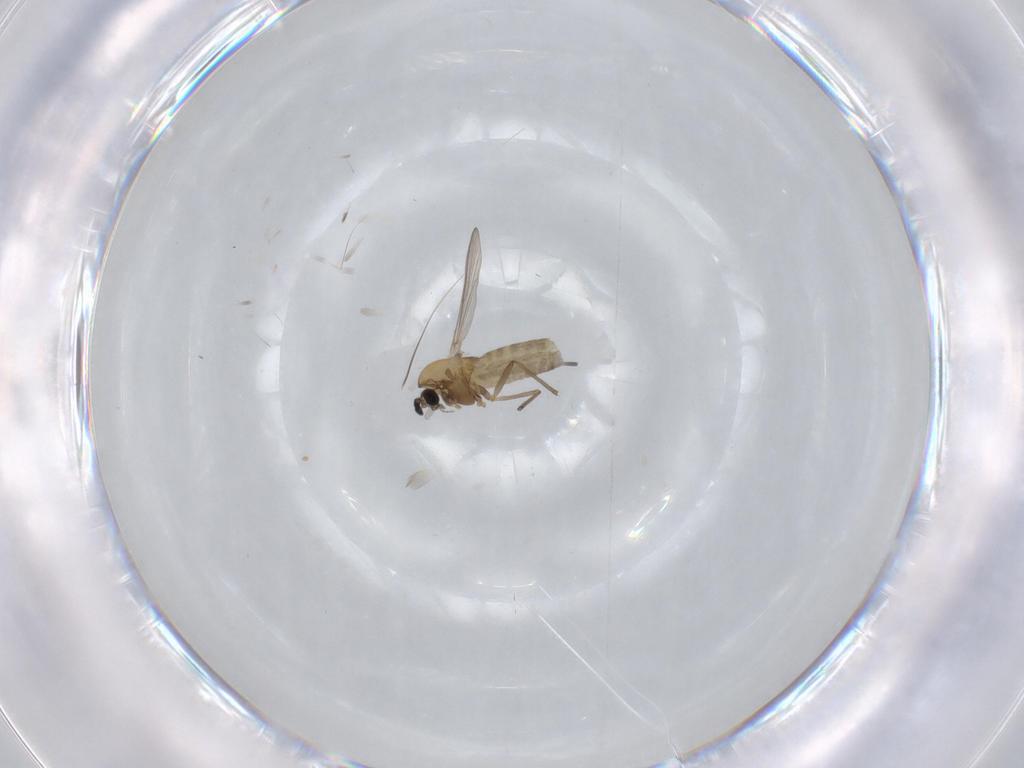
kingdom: Animalia
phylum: Arthropoda
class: Insecta
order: Diptera
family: Chironomidae
